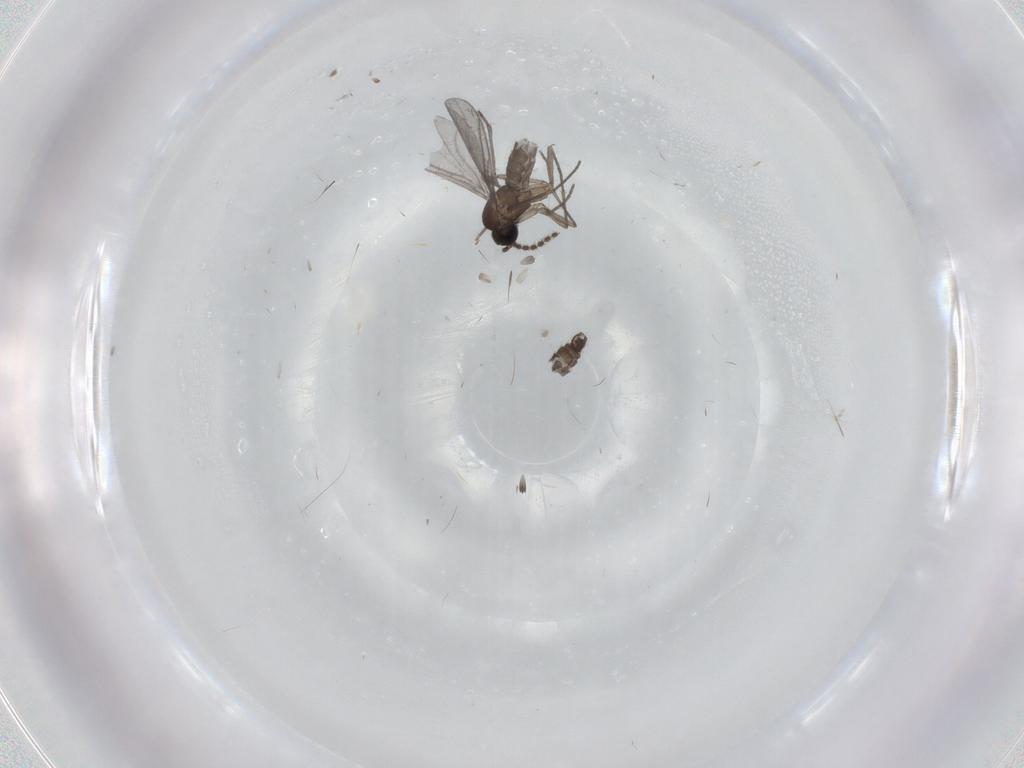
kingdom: Animalia
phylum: Arthropoda
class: Insecta
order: Diptera
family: Sciaridae
